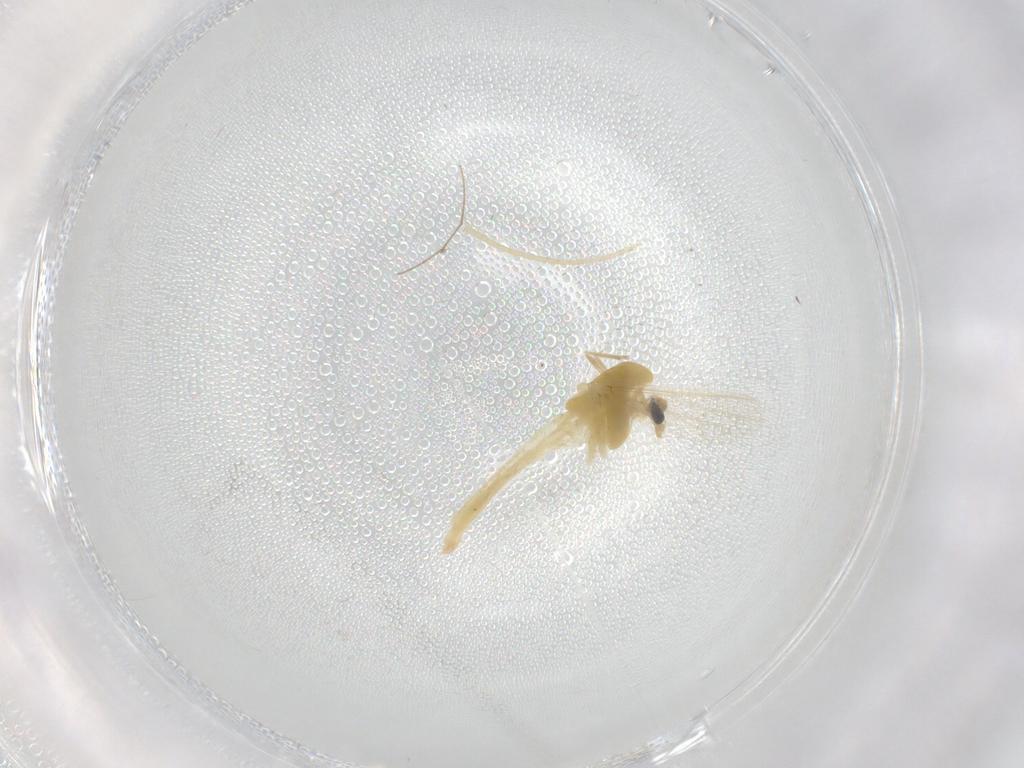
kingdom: Animalia
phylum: Arthropoda
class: Insecta
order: Diptera
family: Chironomidae
